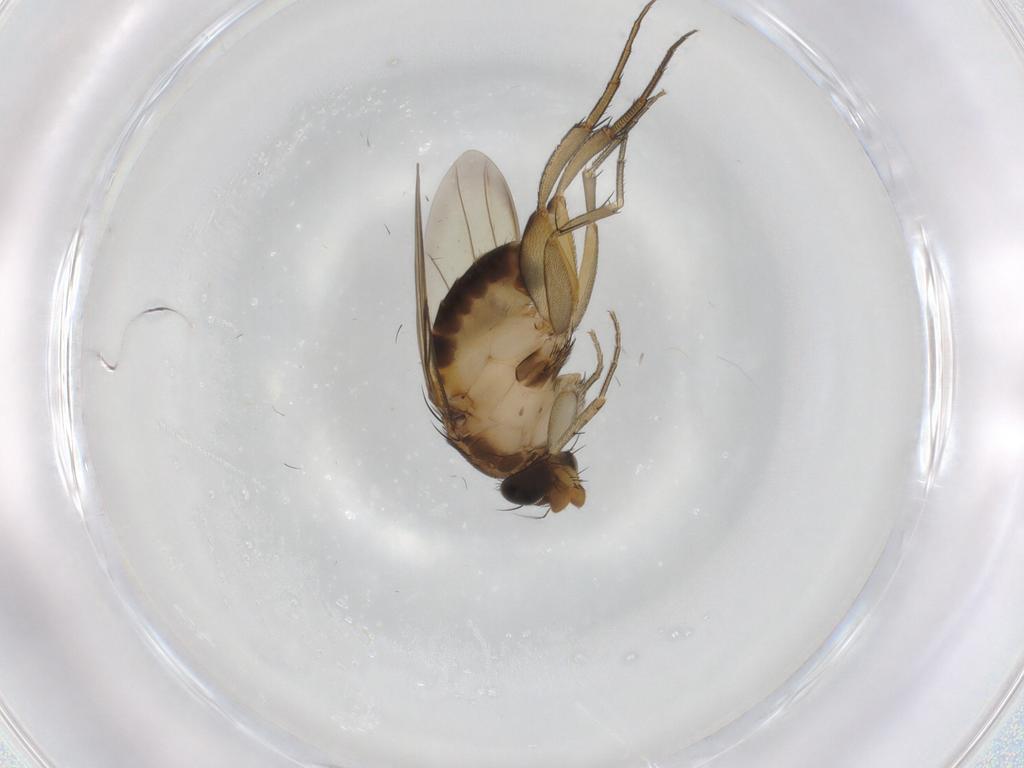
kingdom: Animalia
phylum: Arthropoda
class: Insecta
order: Diptera
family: Phoridae
